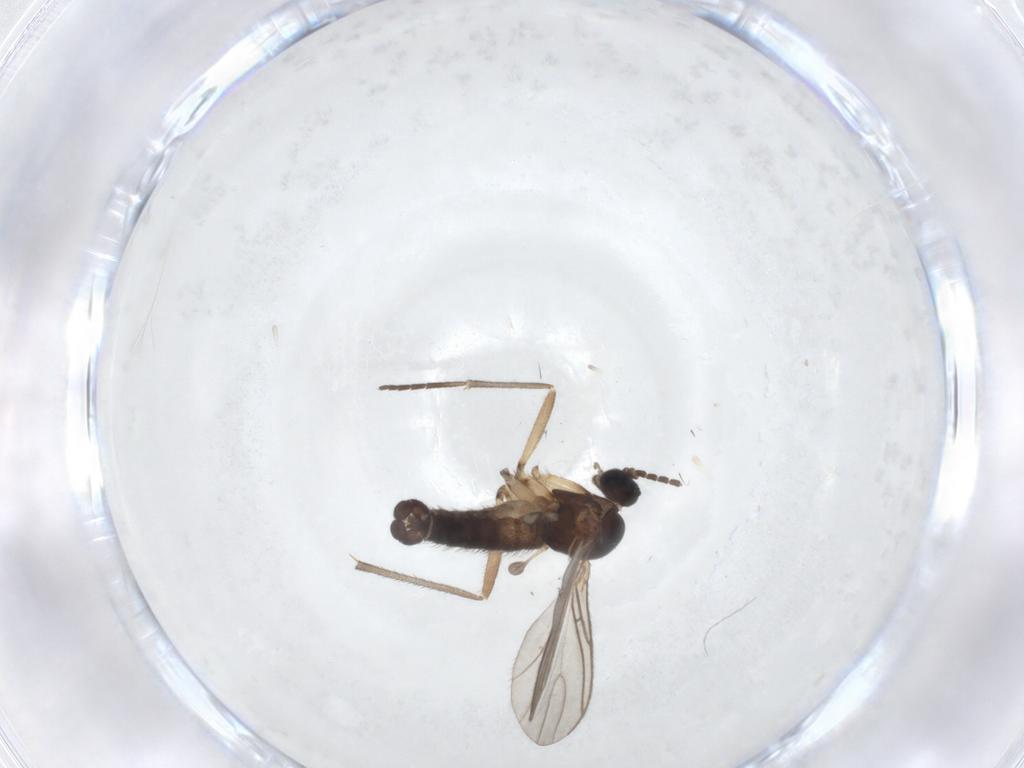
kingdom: Animalia
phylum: Arthropoda
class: Insecta
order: Diptera
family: Sciaridae
